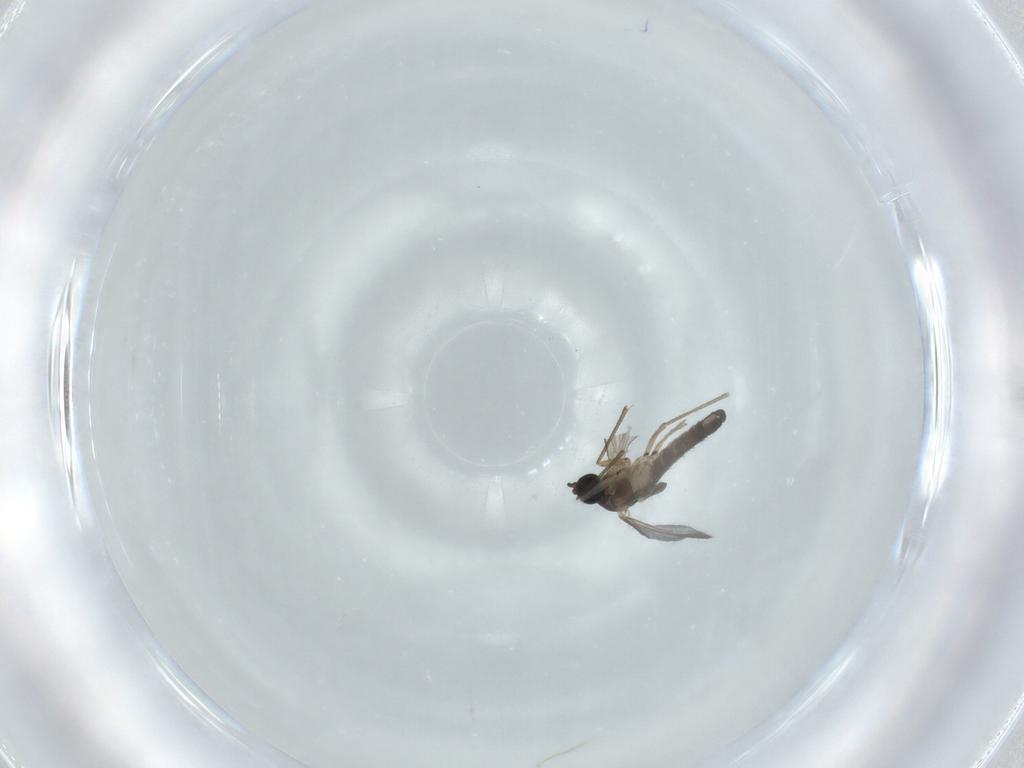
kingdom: Animalia
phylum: Arthropoda
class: Insecta
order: Diptera
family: Sciaridae
